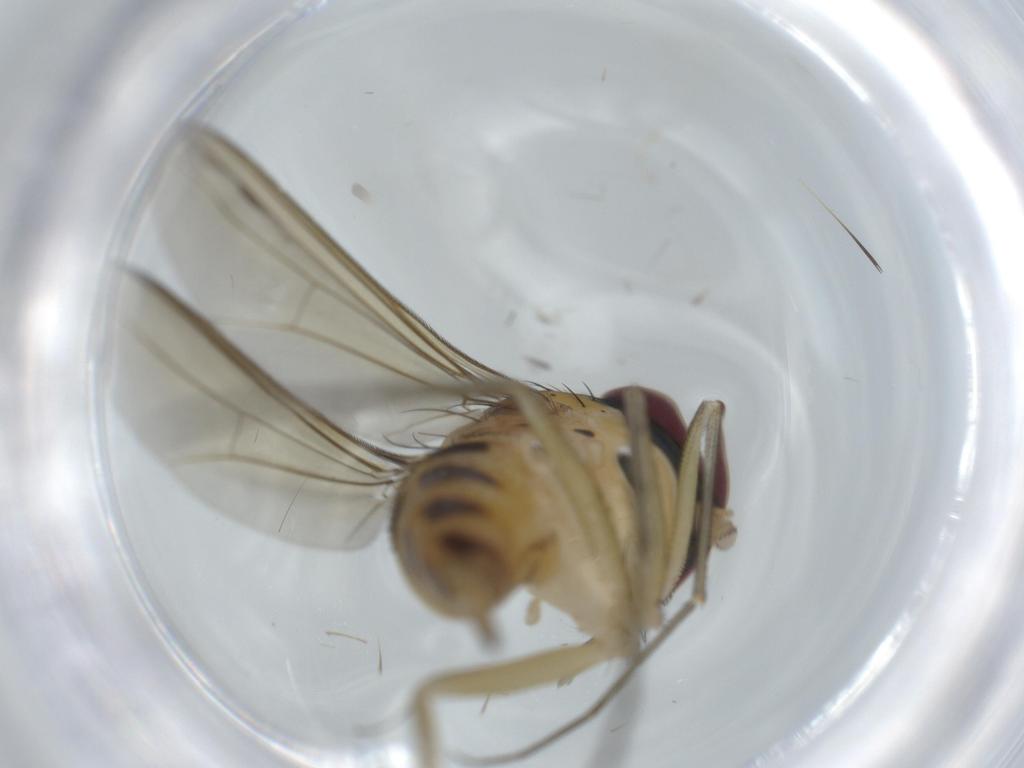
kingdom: Animalia
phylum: Arthropoda
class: Insecta
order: Diptera
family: Dolichopodidae
